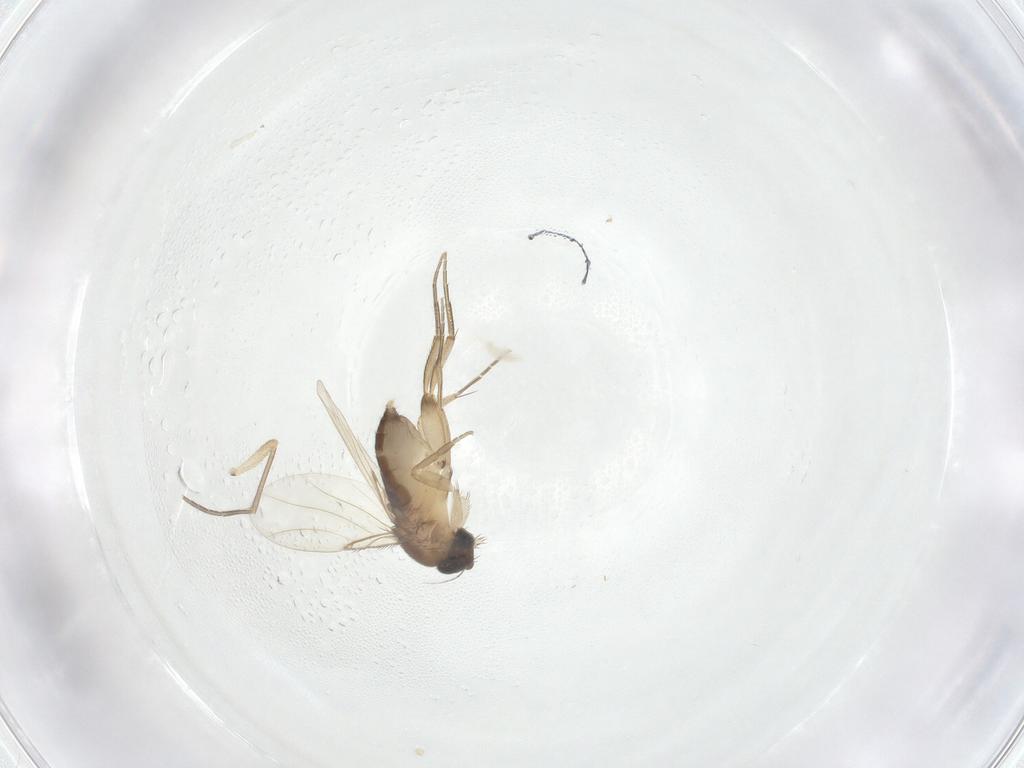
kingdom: Animalia
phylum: Arthropoda
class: Insecta
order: Diptera
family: Phoridae
